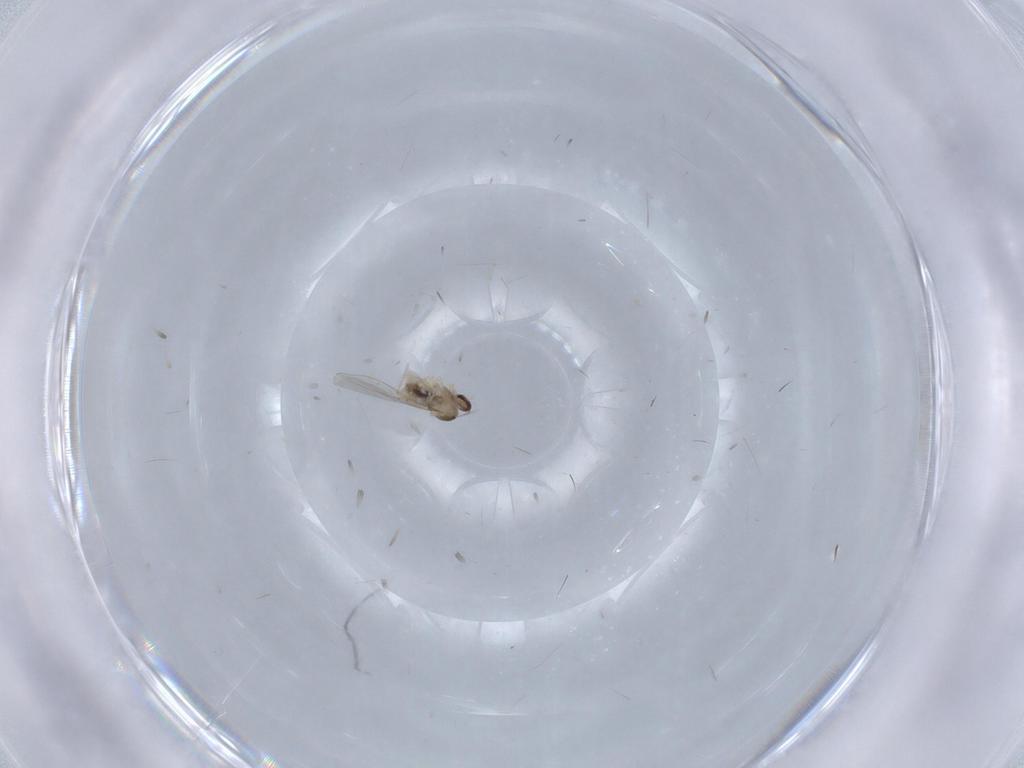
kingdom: Animalia
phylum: Arthropoda
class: Insecta
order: Diptera
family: Cecidomyiidae
